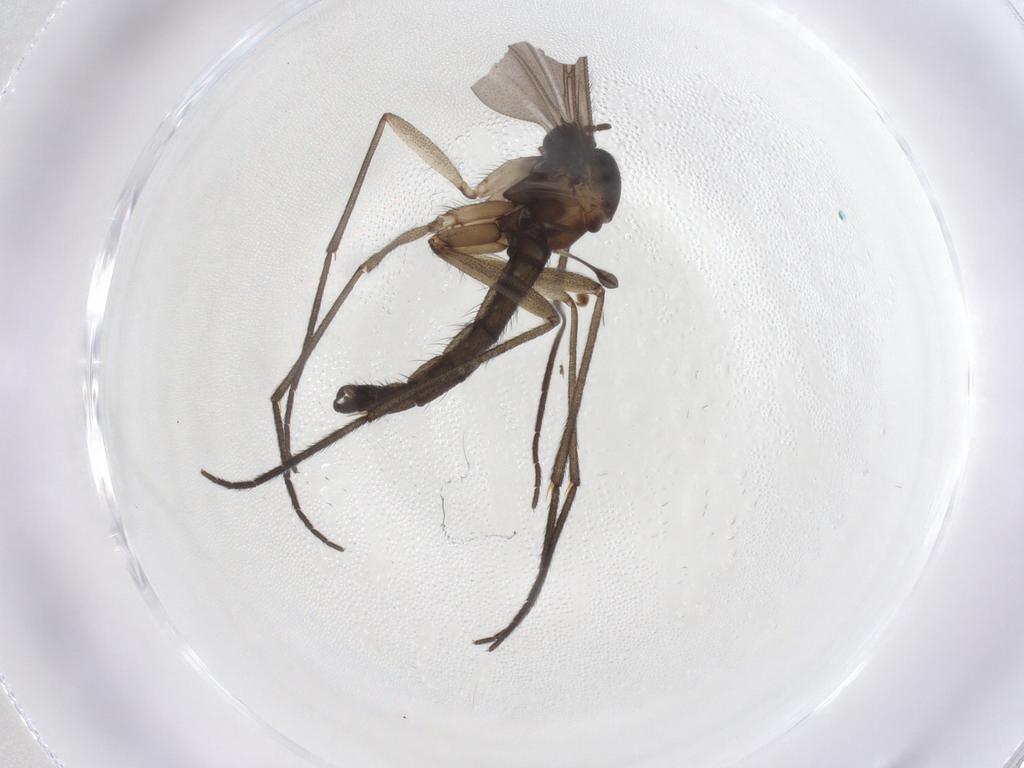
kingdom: Animalia
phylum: Arthropoda
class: Insecta
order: Diptera
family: Sciaridae
